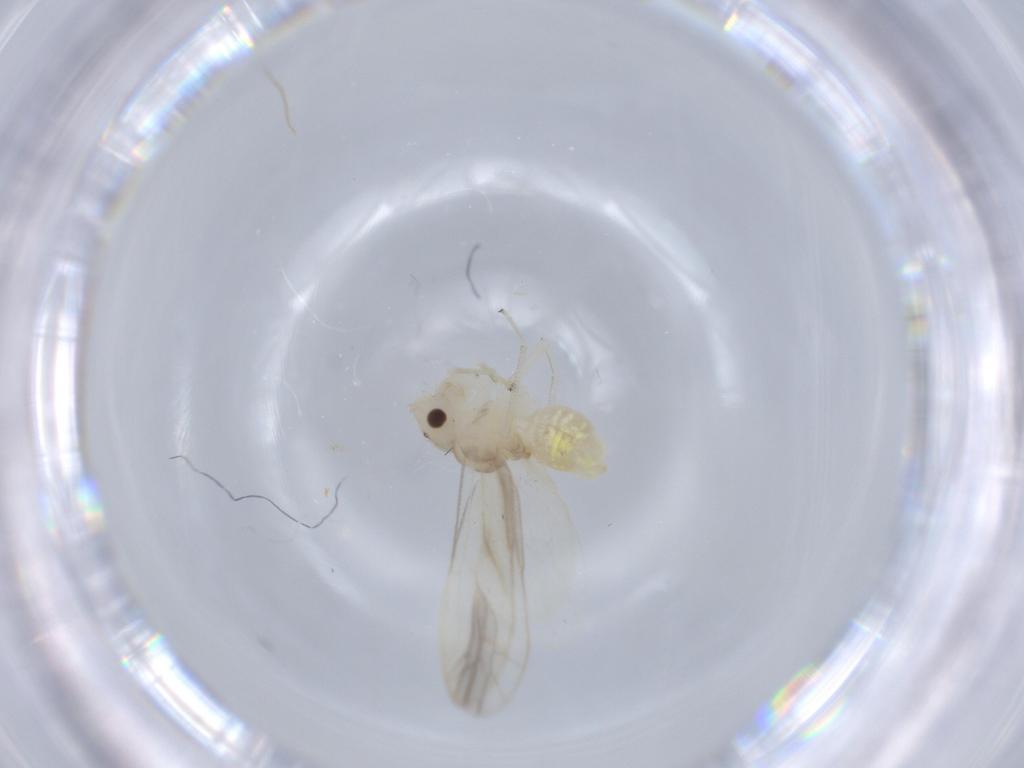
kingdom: Animalia
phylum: Arthropoda
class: Insecta
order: Psocodea
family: Caeciliusidae
